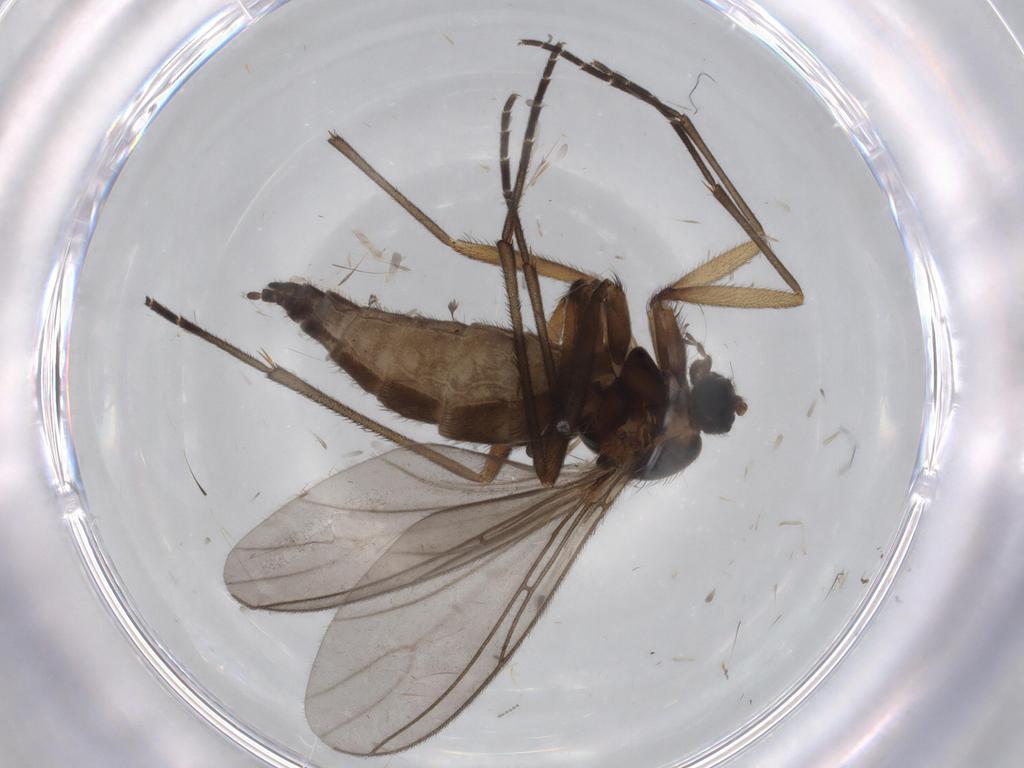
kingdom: Animalia
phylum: Arthropoda
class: Insecta
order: Diptera
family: Sciaridae
